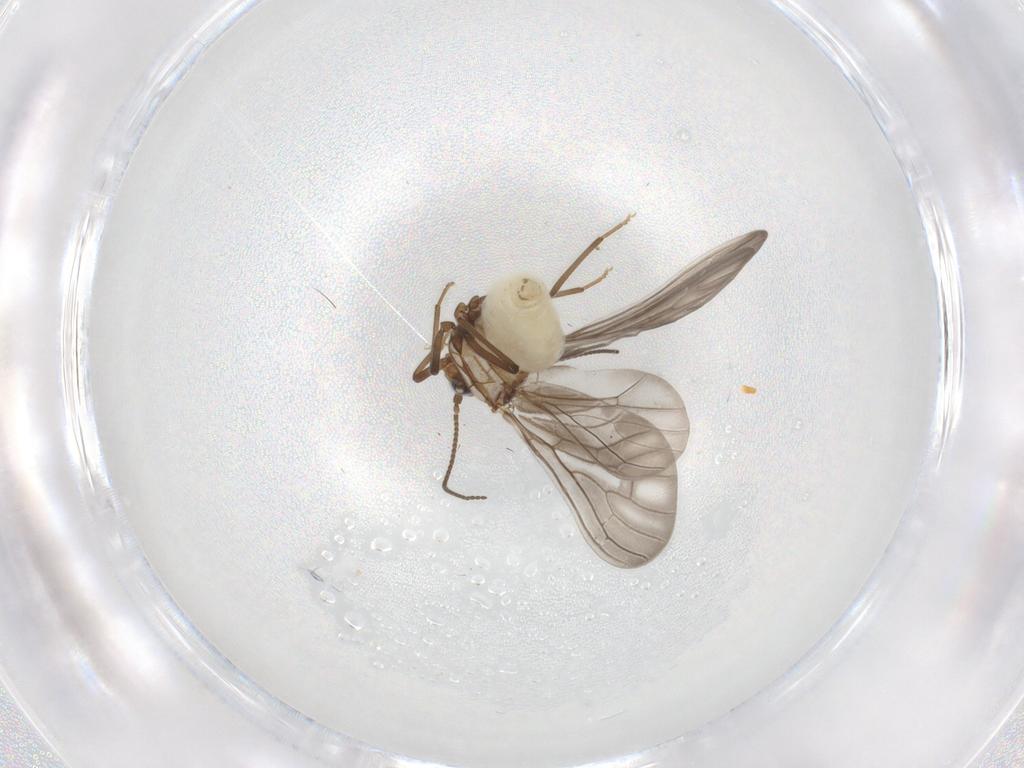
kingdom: Animalia
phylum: Arthropoda
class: Insecta
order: Neuroptera
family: Coniopterygidae
